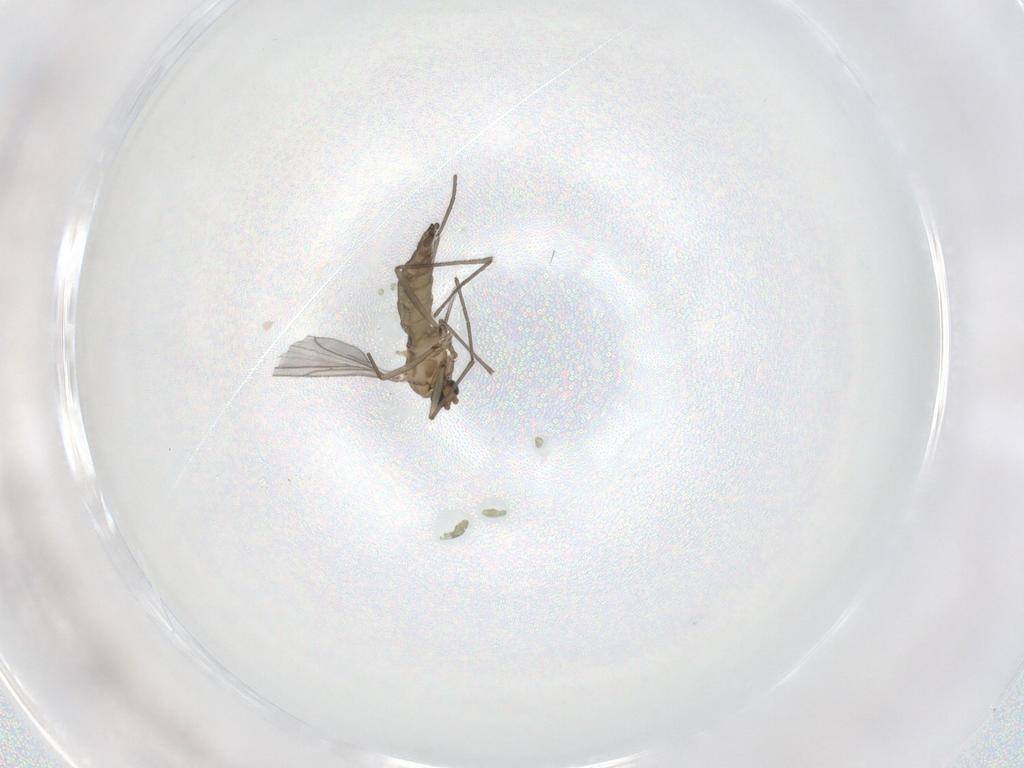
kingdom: Animalia
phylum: Arthropoda
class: Insecta
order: Diptera
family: Sciaridae
